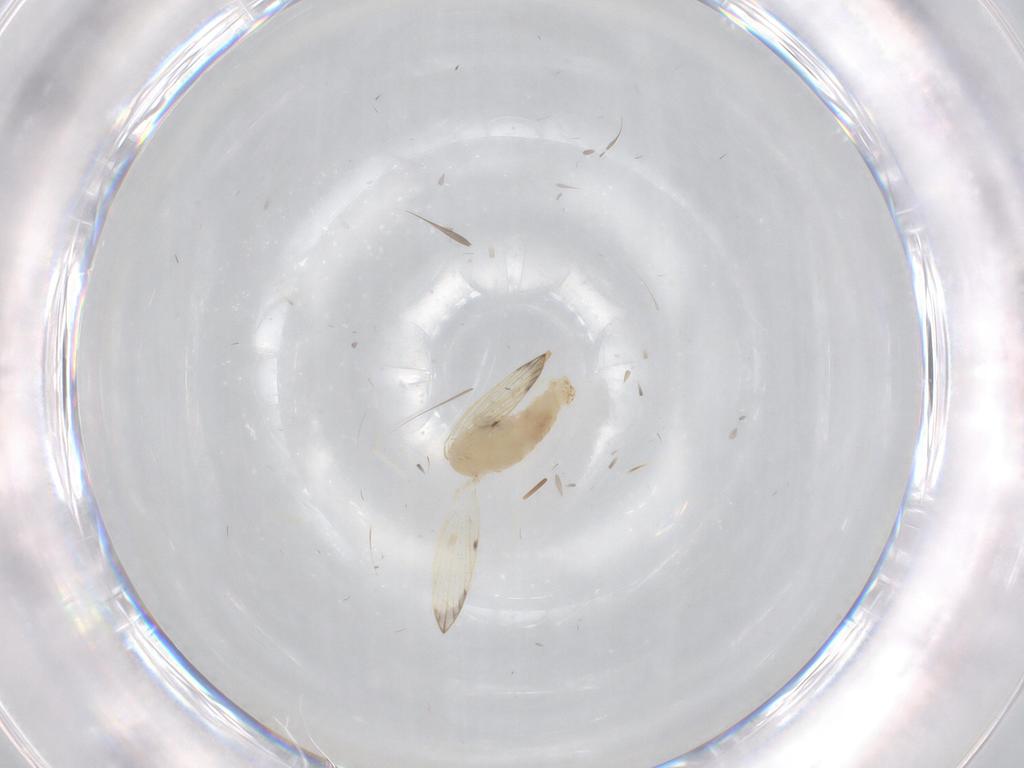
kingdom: Animalia
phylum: Arthropoda
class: Insecta
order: Diptera
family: Psychodidae
